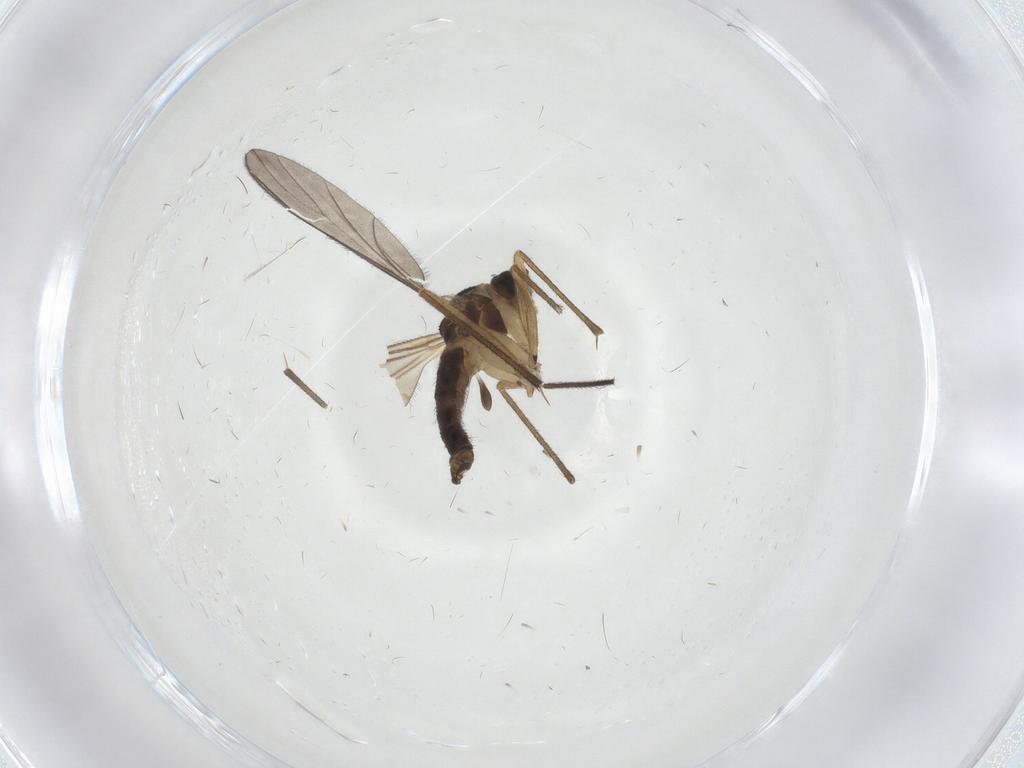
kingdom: Animalia
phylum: Arthropoda
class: Insecta
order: Diptera
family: Sciaridae
